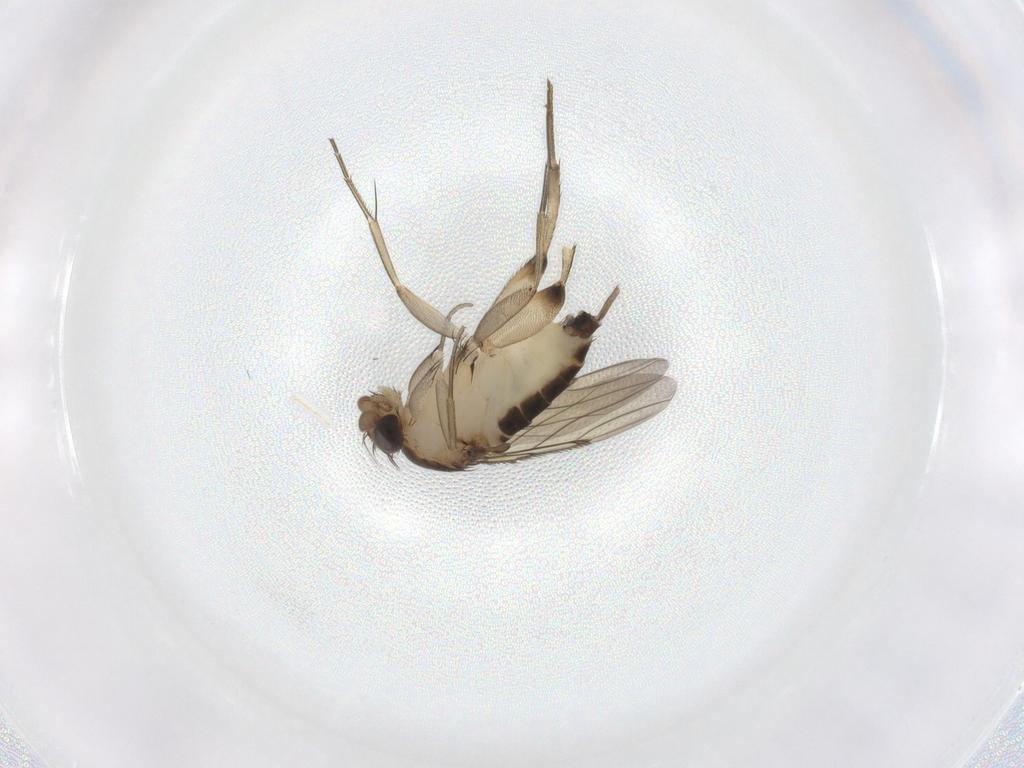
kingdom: Animalia
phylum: Arthropoda
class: Insecta
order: Diptera
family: Phoridae
